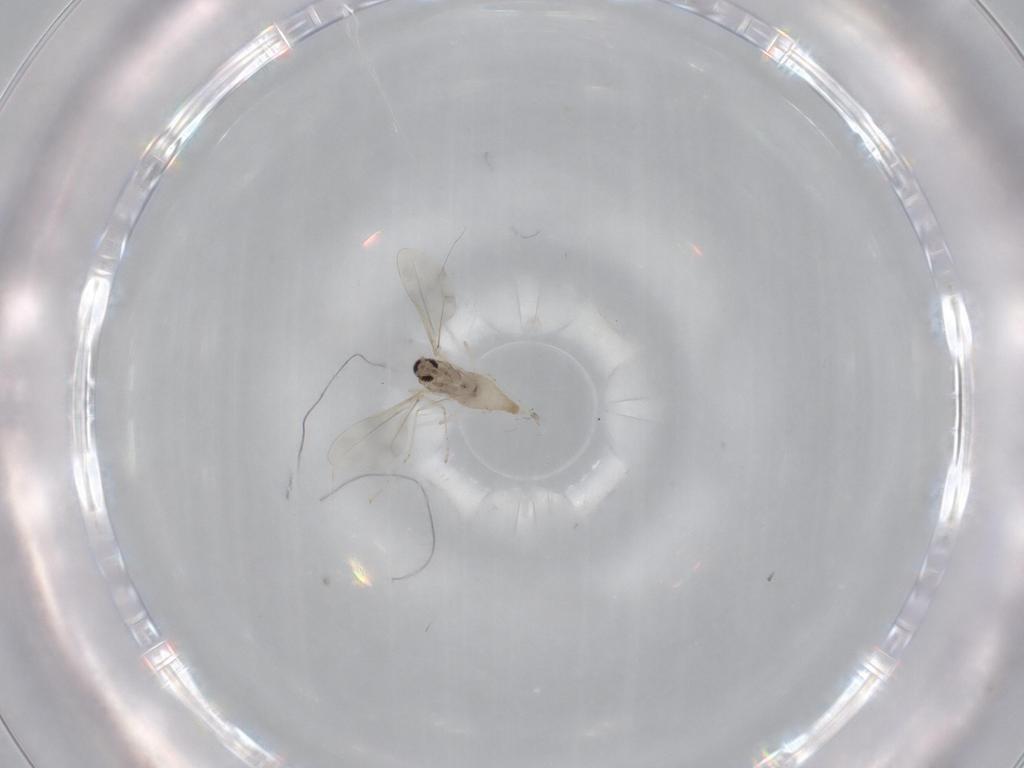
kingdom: Animalia
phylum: Arthropoda
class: Insecta
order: Diptera
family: Cecidomyiidae
